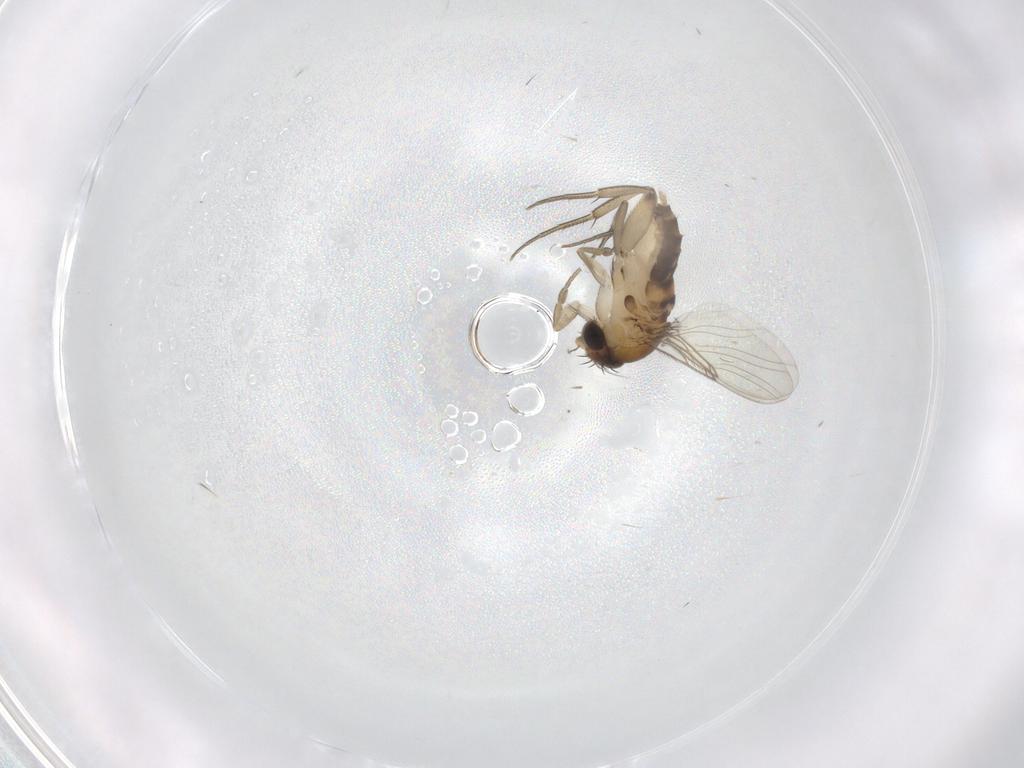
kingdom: Animalia
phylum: Arthropoda
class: Insecta
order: Diptera
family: Phoridae
